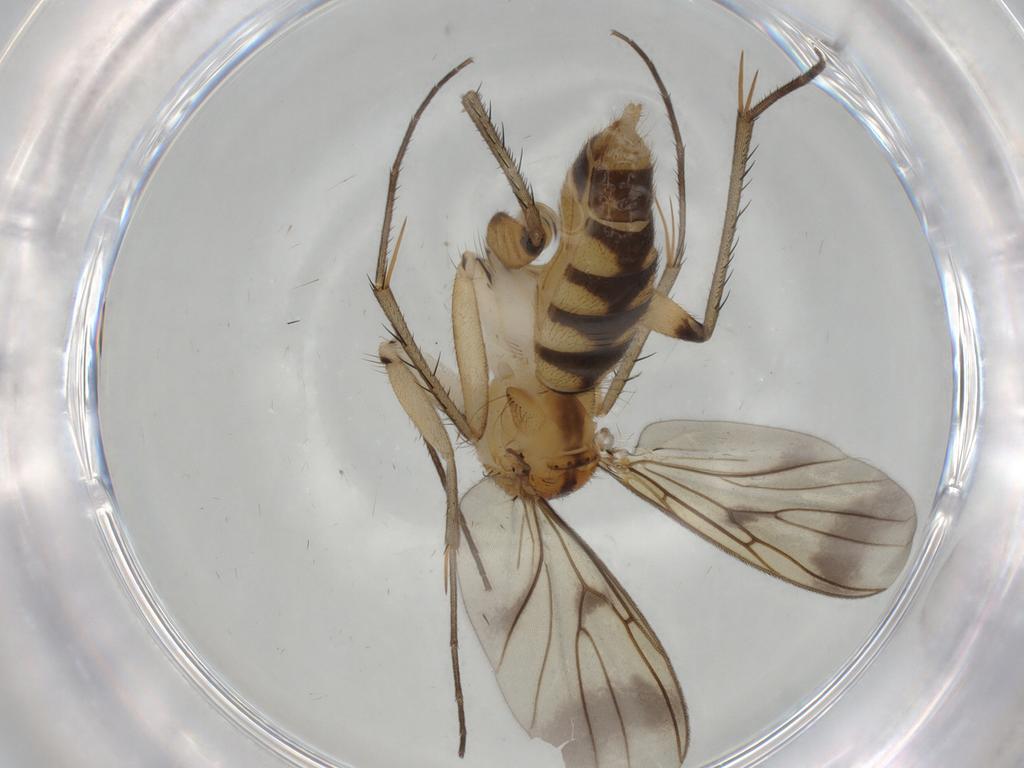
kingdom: Animalia
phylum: Arthropoda
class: Insecta
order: Diptera
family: Mycetophilidae
